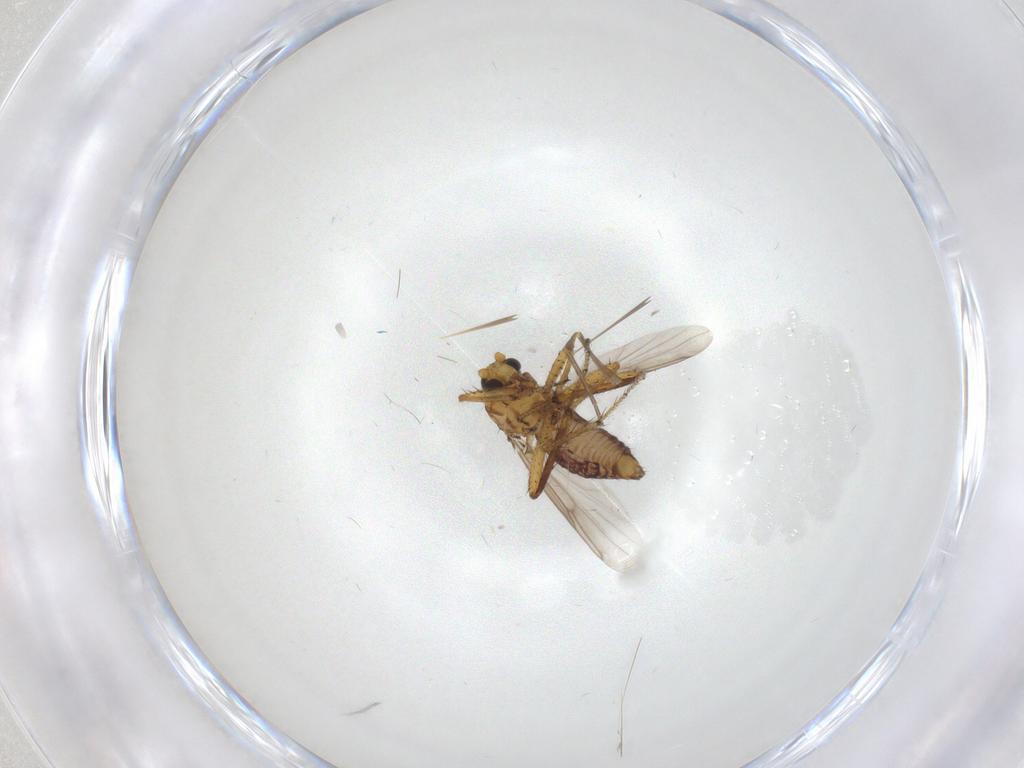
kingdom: Animalia
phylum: Arthropoda
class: Insecta
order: Diptera
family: Ceratopogonidae
